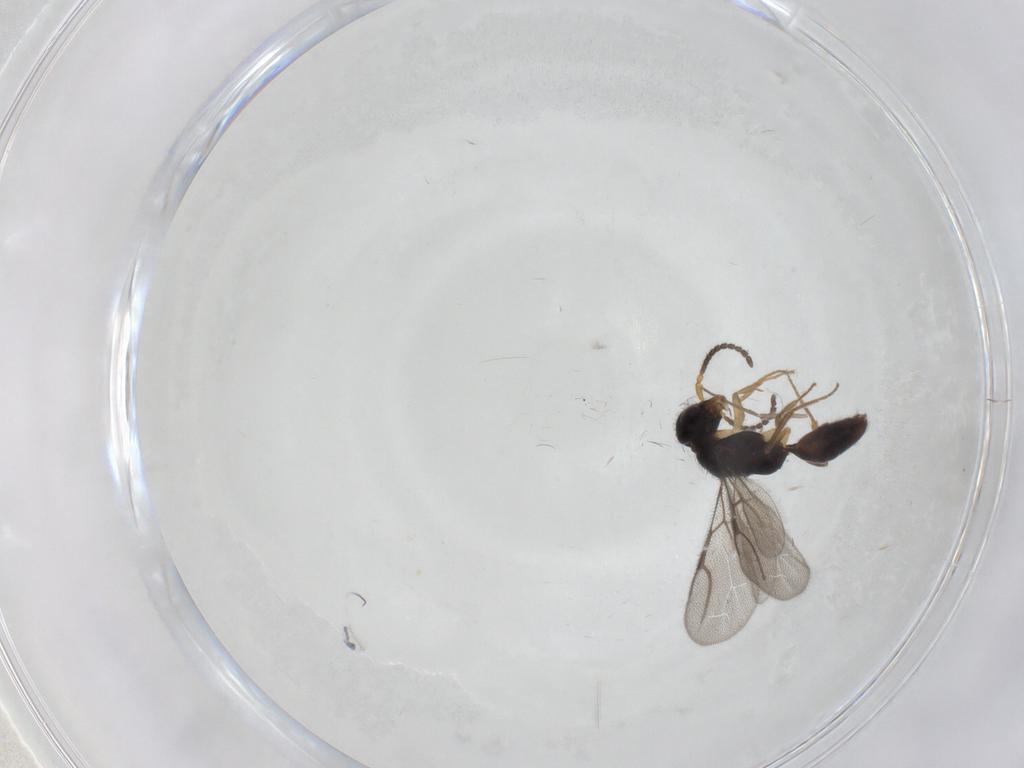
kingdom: Animalia
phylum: Arthropoda
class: Insecta
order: Hymenoptera
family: Bethylidae
